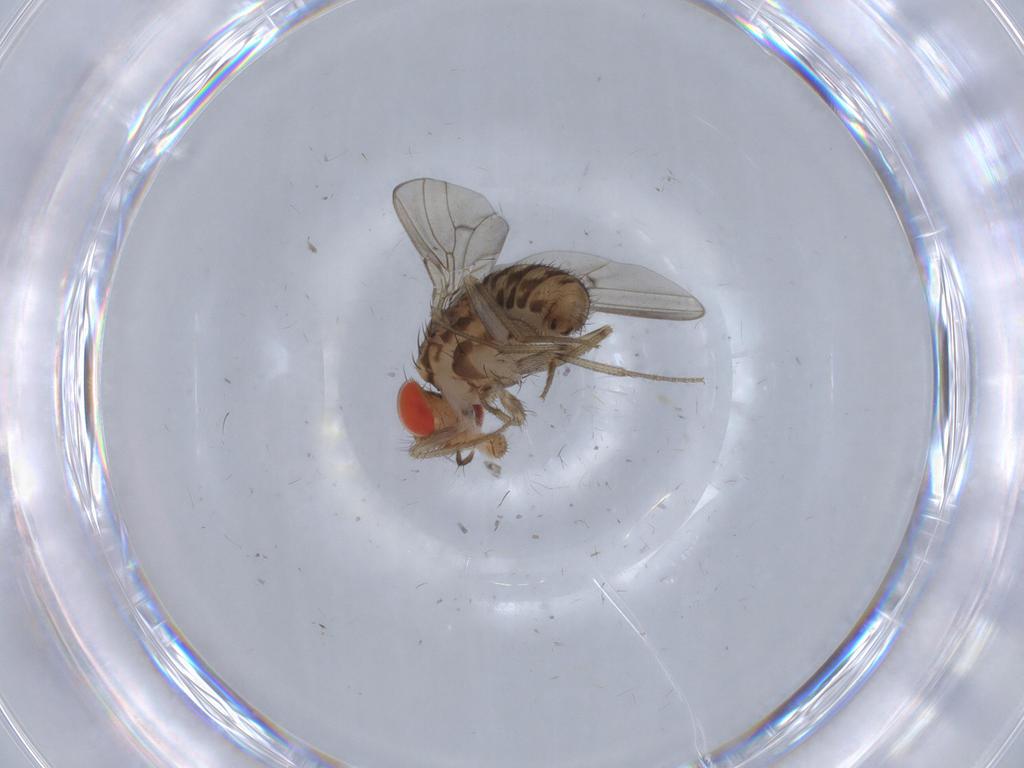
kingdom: Animalia
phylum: Arthropoda
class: Insecta
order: Diptera
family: Drosophilidae
